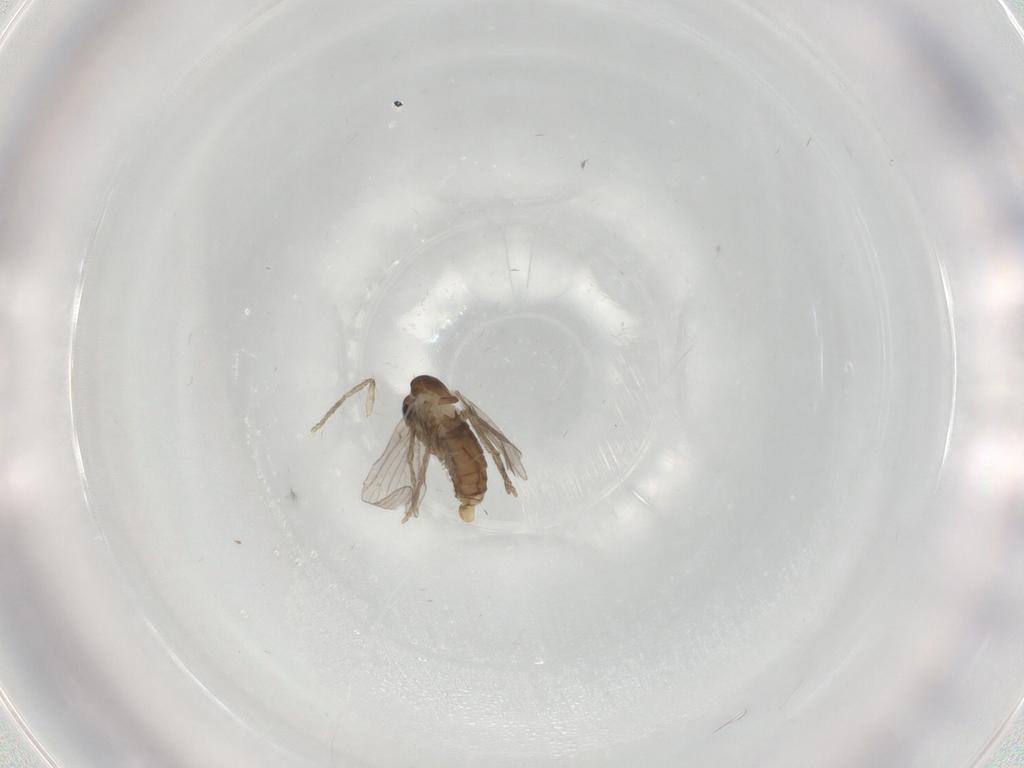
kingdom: Animalia
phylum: Arthropoda
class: Insecta
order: Diptera
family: Psychodidae
